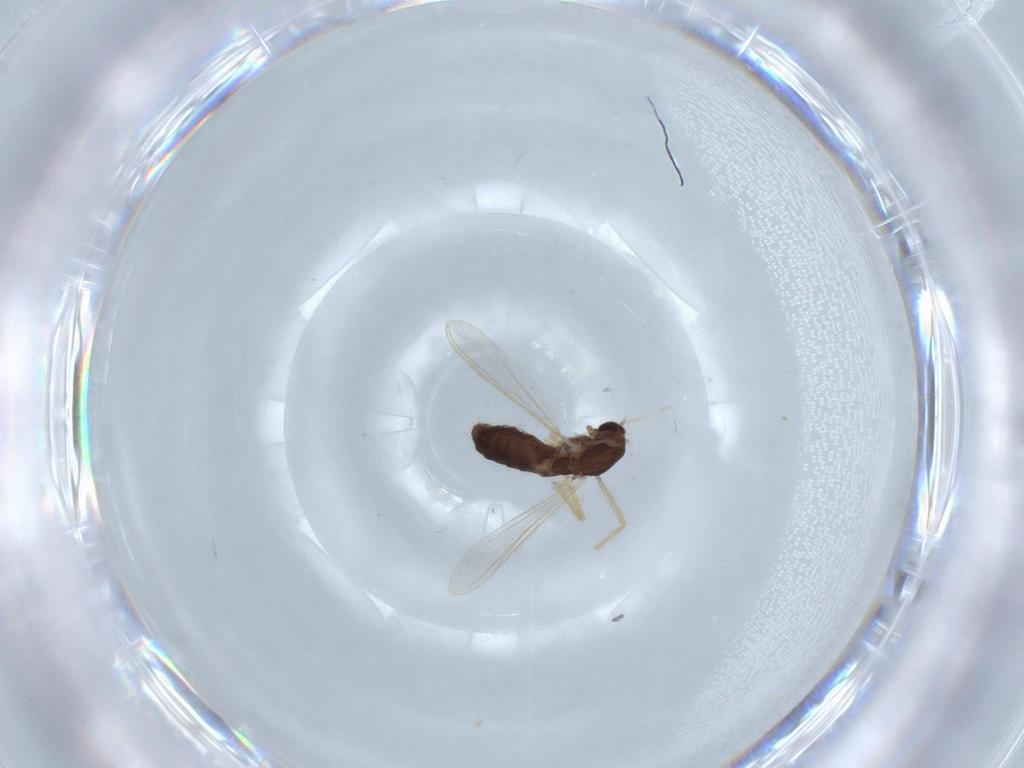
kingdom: Animalia
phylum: Arthropoda
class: Insecta
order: Diptera
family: Chironomidae
